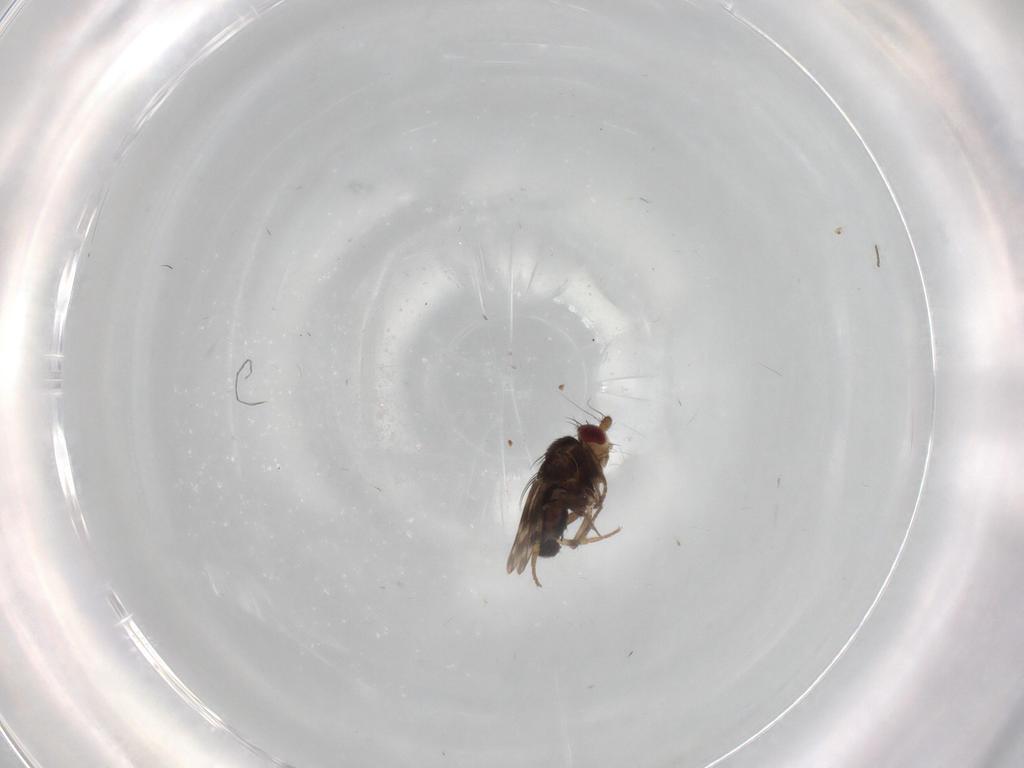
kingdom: Animalia
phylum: Arthropoda
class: Insecta
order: Diptera
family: Sphaeroceridae
